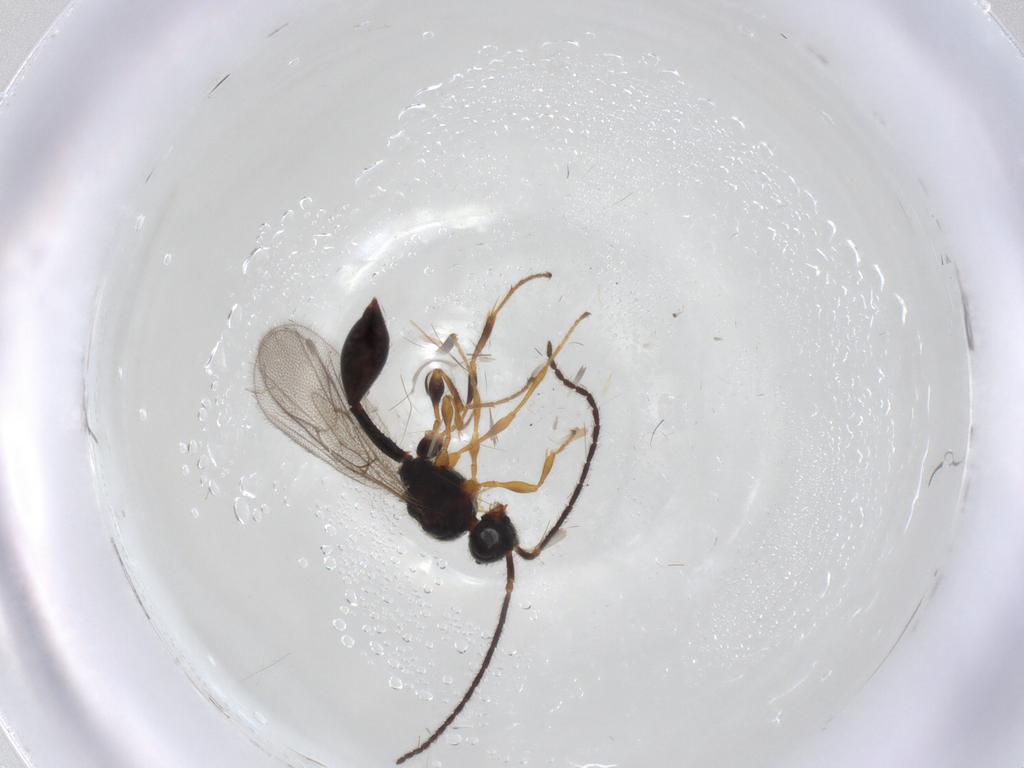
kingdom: Animalia
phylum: Arthropoda
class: Insecta
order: Hymenoptera
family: Diapriidae
